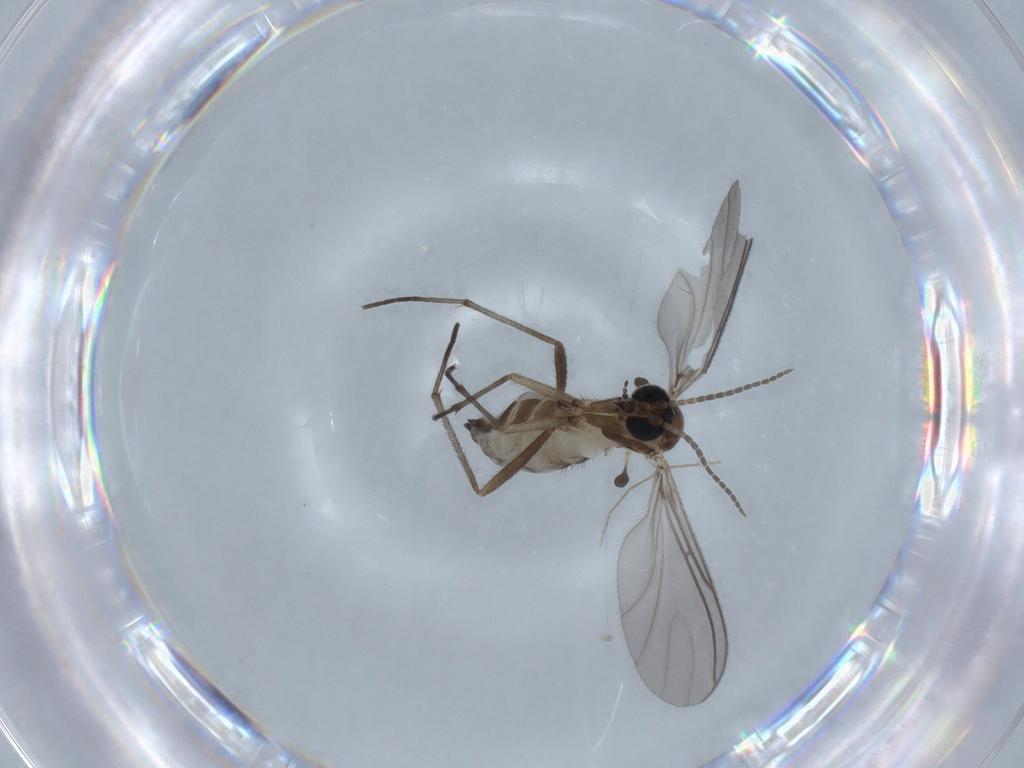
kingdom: Animalia
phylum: Arthropoda
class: Insecta
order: Diptera
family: Sciaridae
